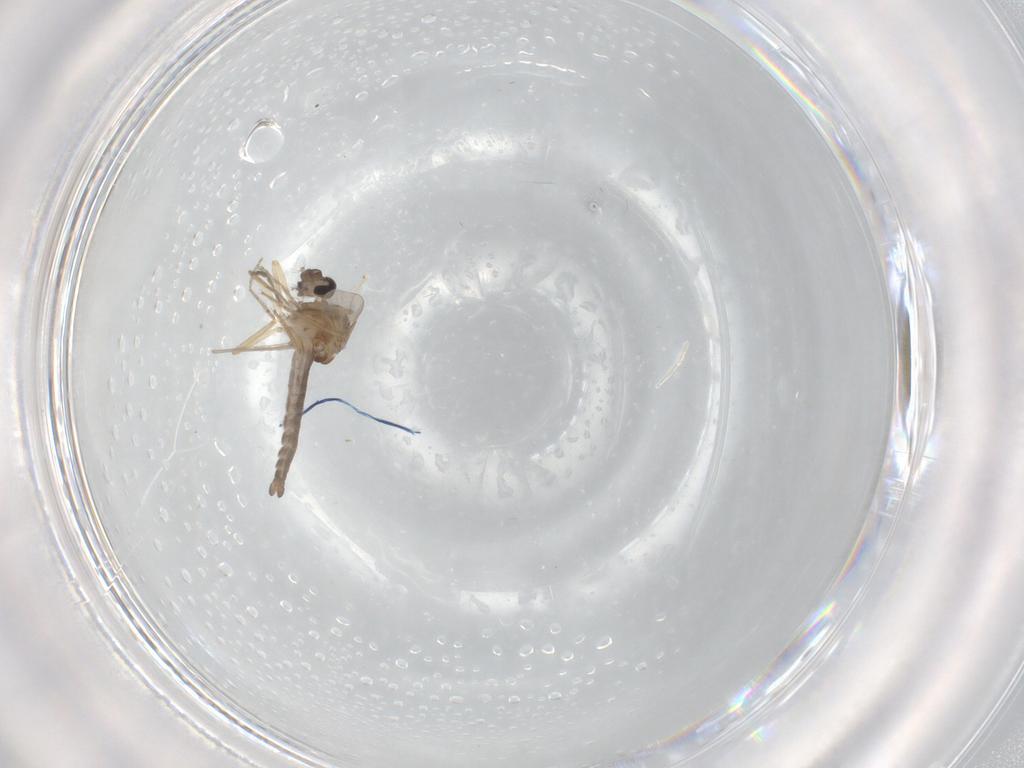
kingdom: Animalia
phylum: Arthropoda
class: Insecta
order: Diptera
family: Ceratopogonidae
